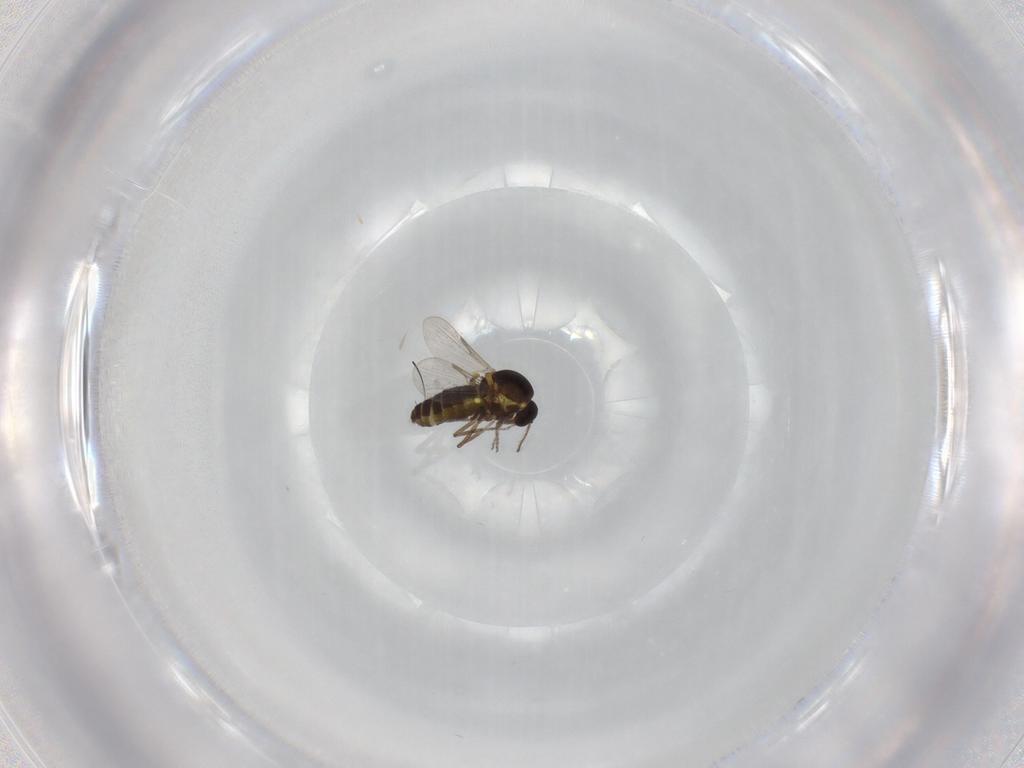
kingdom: Animalia
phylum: Arthropoda
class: Insecta
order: Diptera
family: Ceratopogonidae
